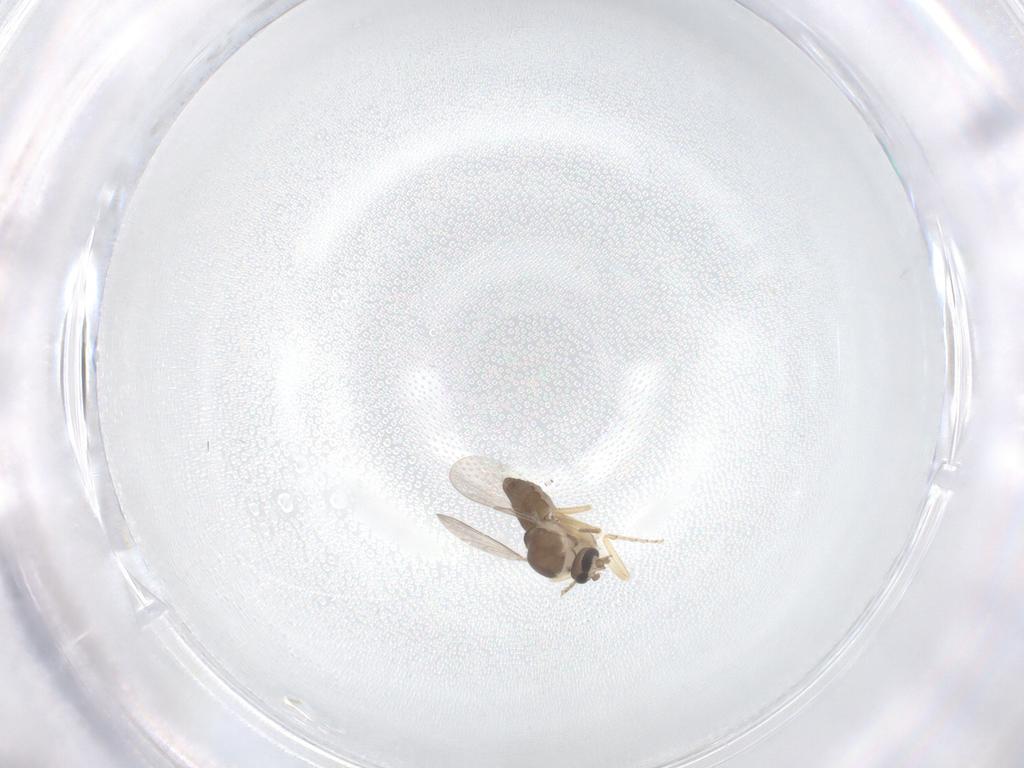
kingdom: Animalia
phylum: Arthropoda
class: Insecta
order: Diptera
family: Ceratopogonidae
